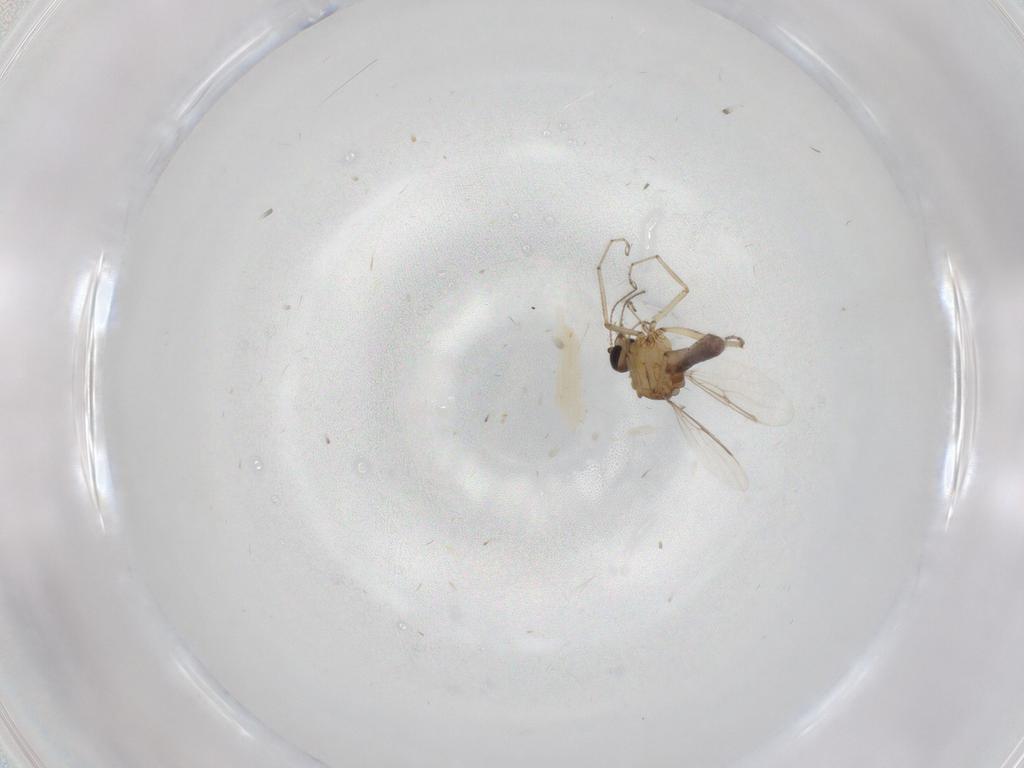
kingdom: Animalia
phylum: Arthropoda
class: Insecta
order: Diptera
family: Ceratopogonidae
